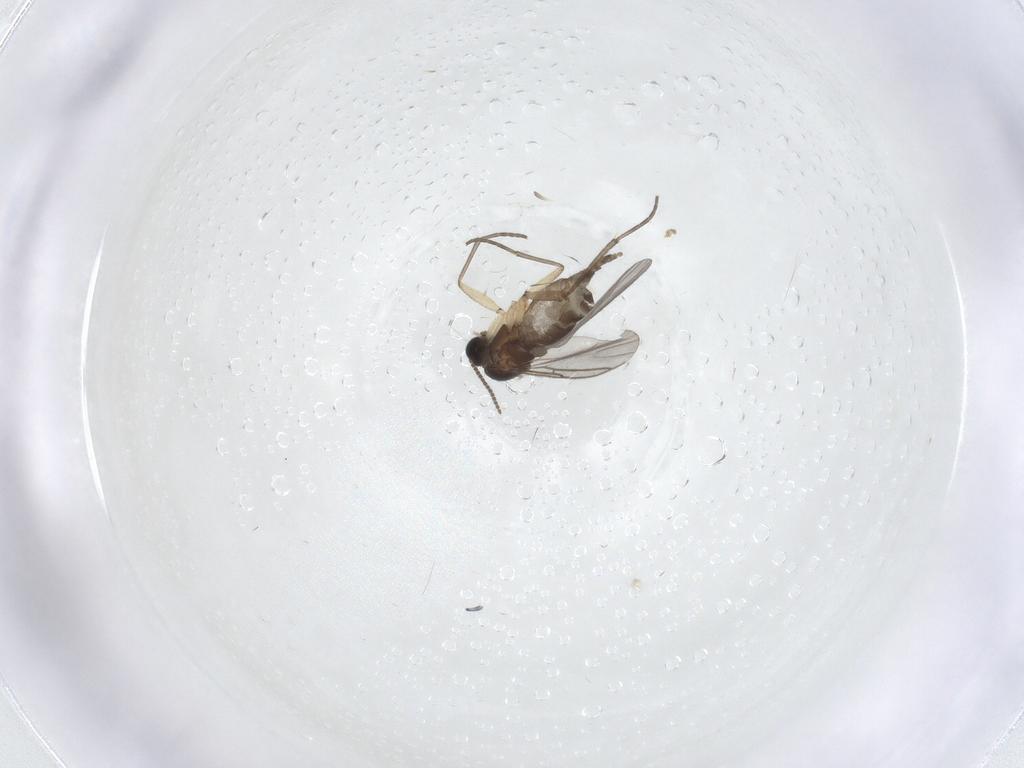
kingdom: Animalia
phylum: Arthropoda
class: Insecta
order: Diptera
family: Sciaridae
